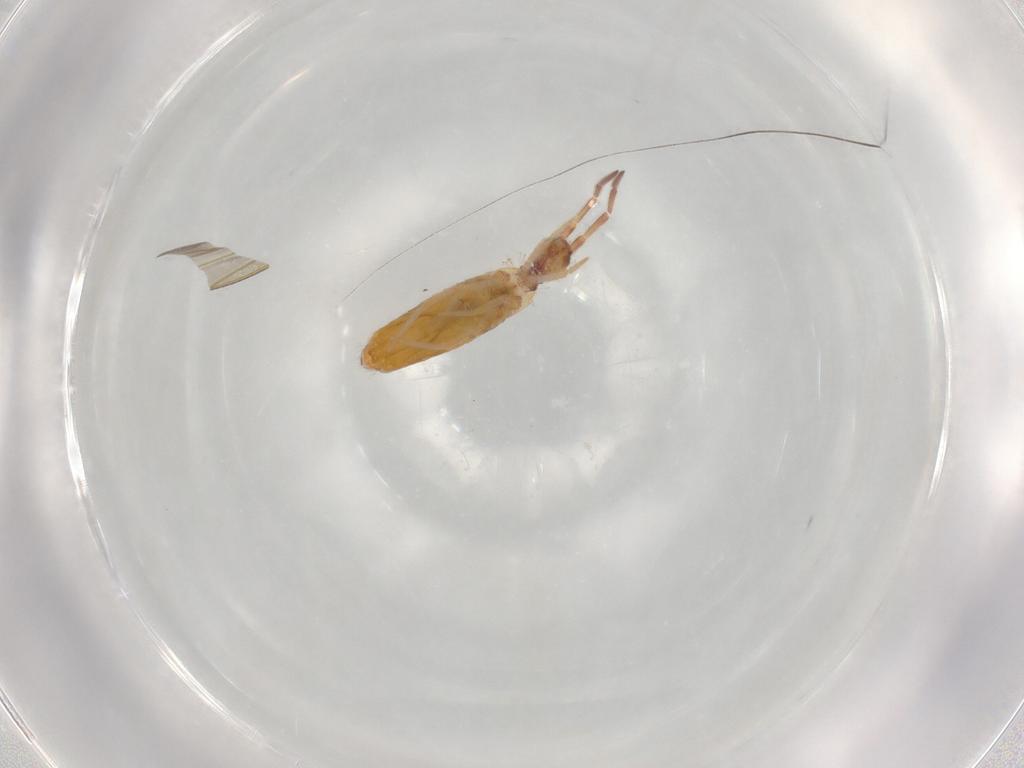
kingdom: Animalia
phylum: Arthropoda
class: Collembola
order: Entomobryomorpha
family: Entomobryidae
